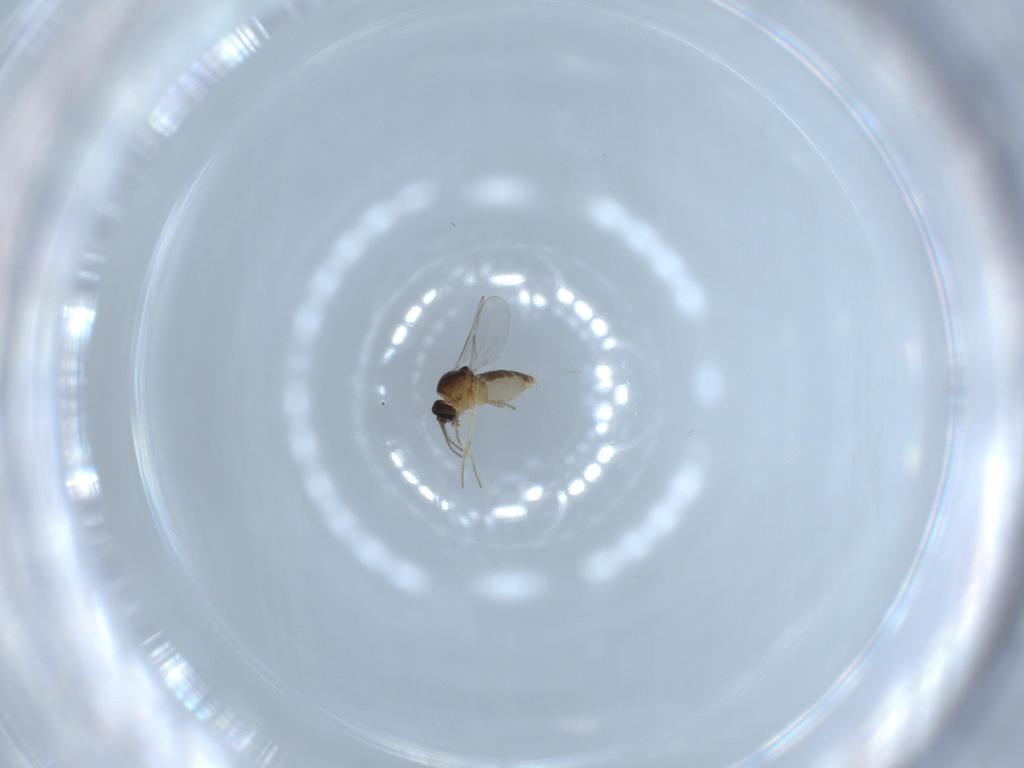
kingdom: Animalia
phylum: Arthropoda
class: Insecta
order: Diptera
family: Ceratopogonidae
